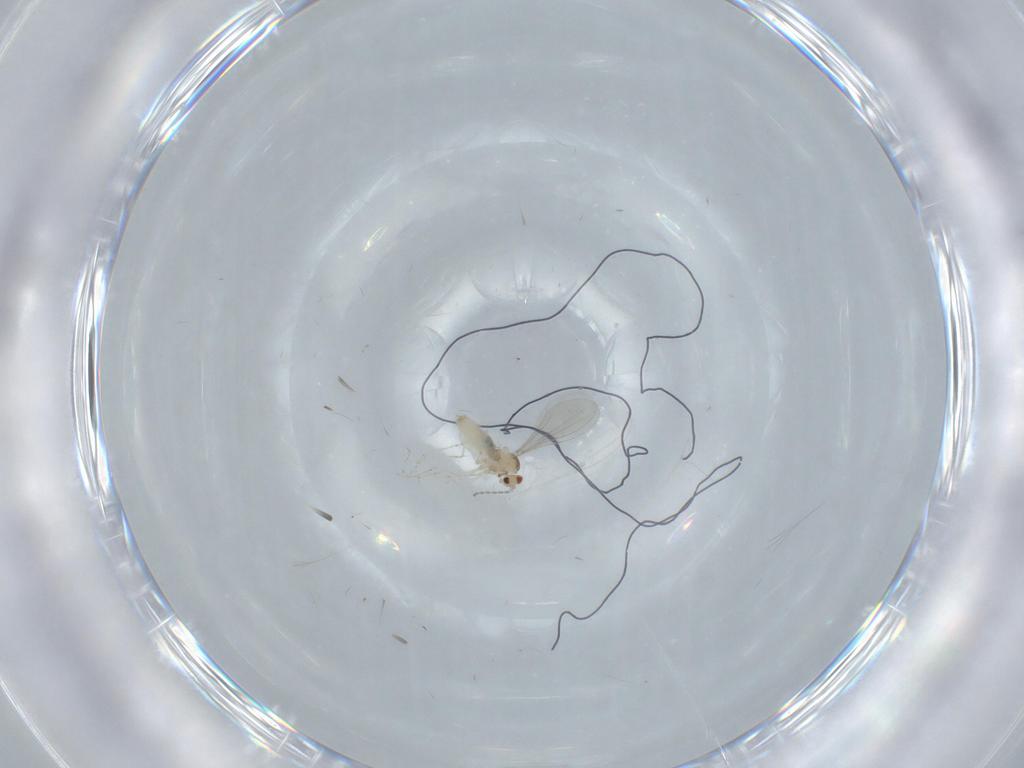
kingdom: Animalia
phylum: Arthropoda
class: Insecta
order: Diptera
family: Cecidomyiidae
